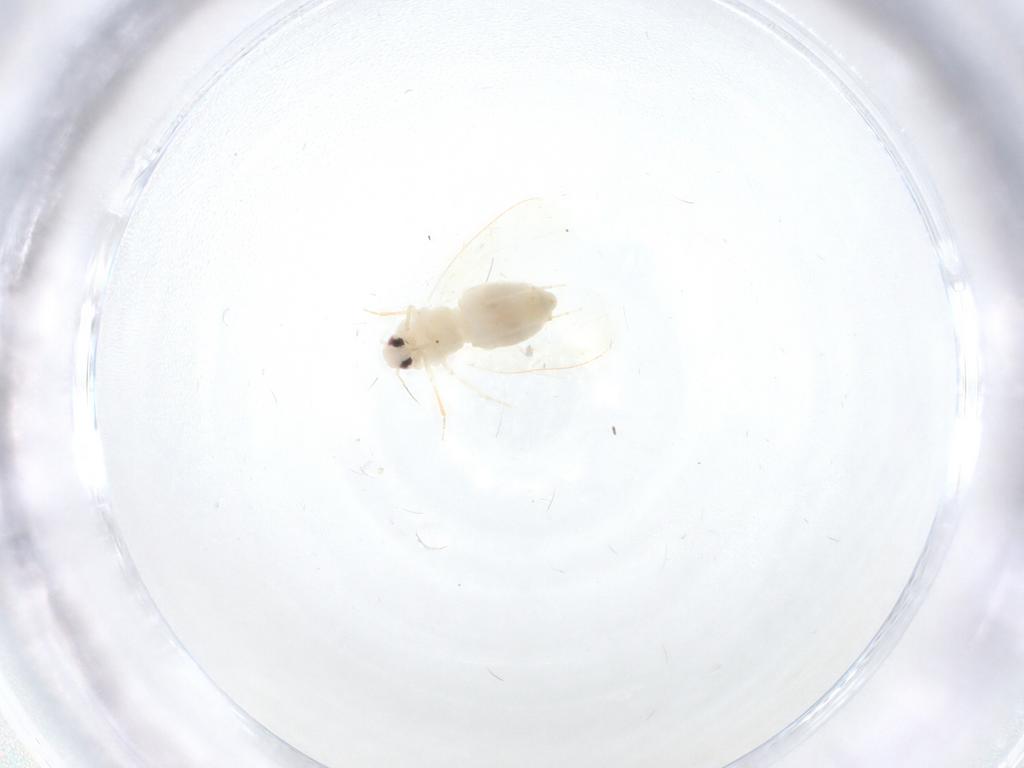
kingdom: Animalia
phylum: Arthropoda
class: Insecta
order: Hemiptera
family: Aleyrodidae
